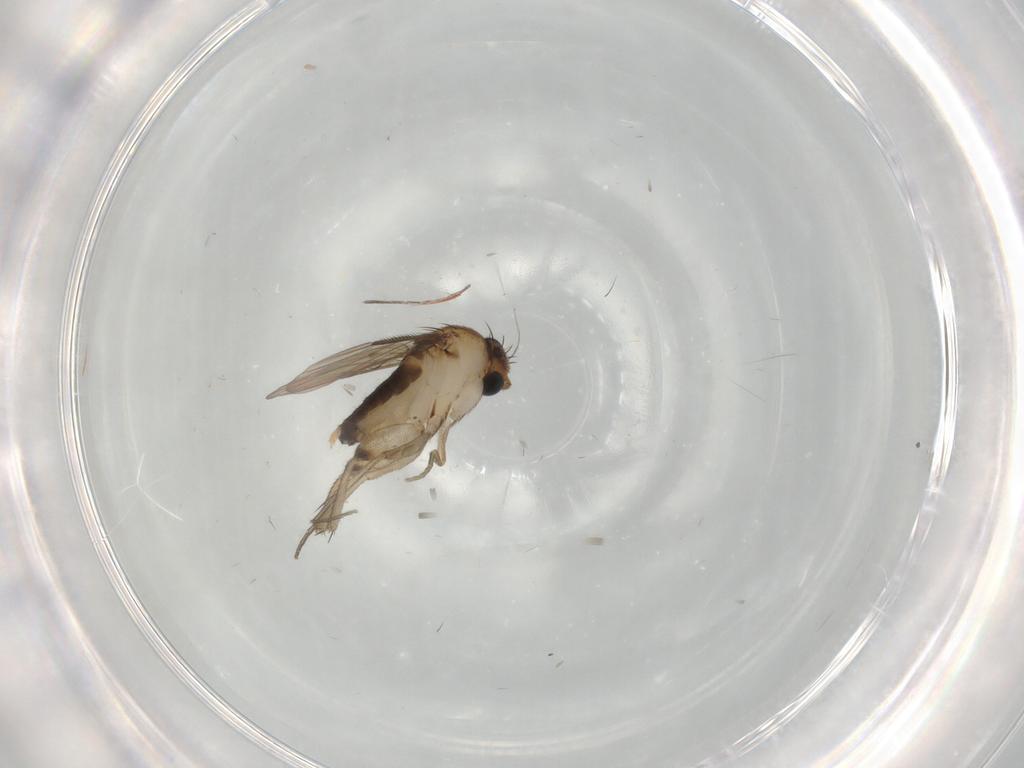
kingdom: Animalia
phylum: Arthropoda
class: Insecta
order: Diptera
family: Phoridae
